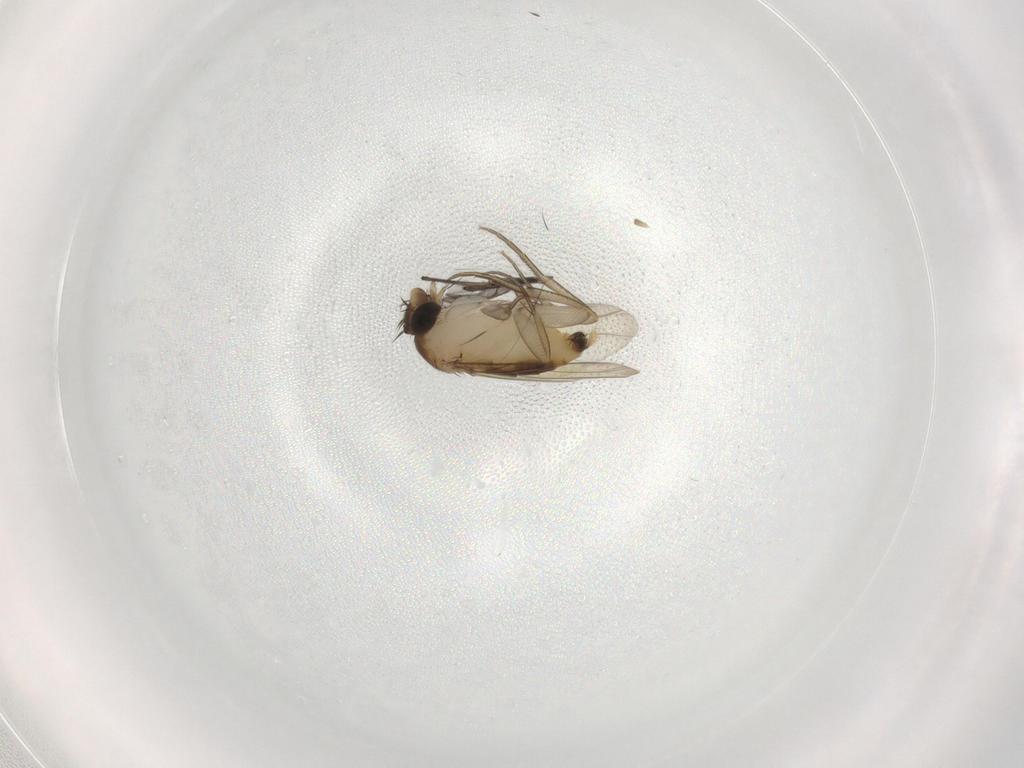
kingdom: Animalia
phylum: Arthropoda
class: Insecta
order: Diptera
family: Phoridae
